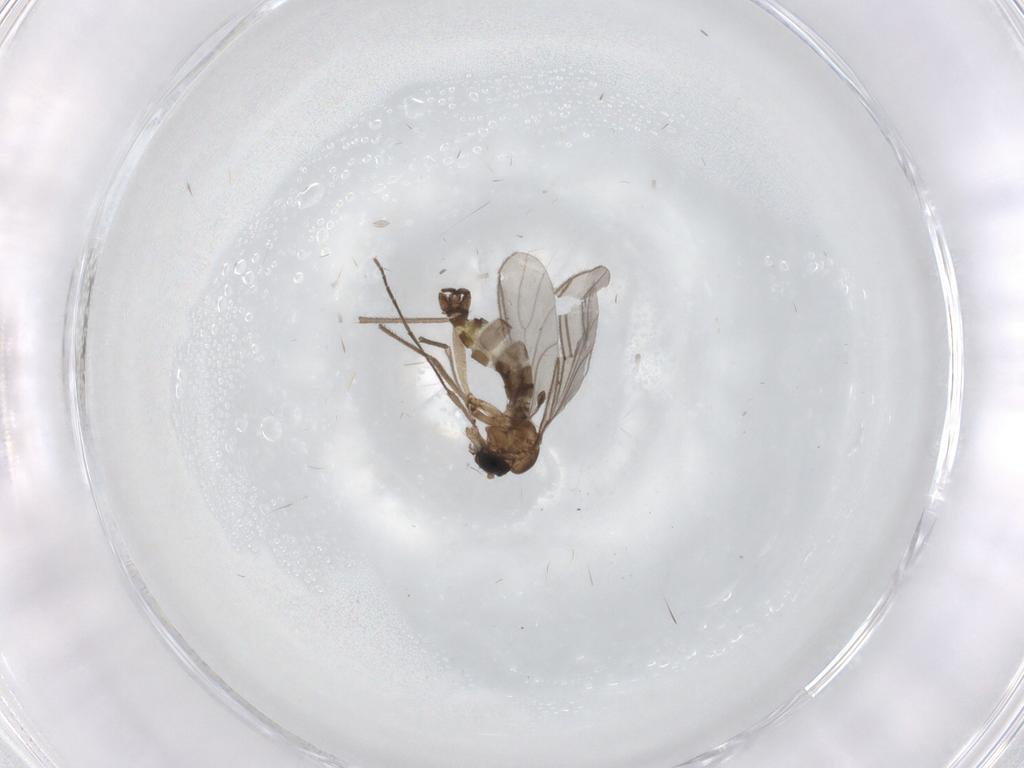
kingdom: Animalia
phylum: Arthropoda
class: Insecta
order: Diptera
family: Sciaridae
